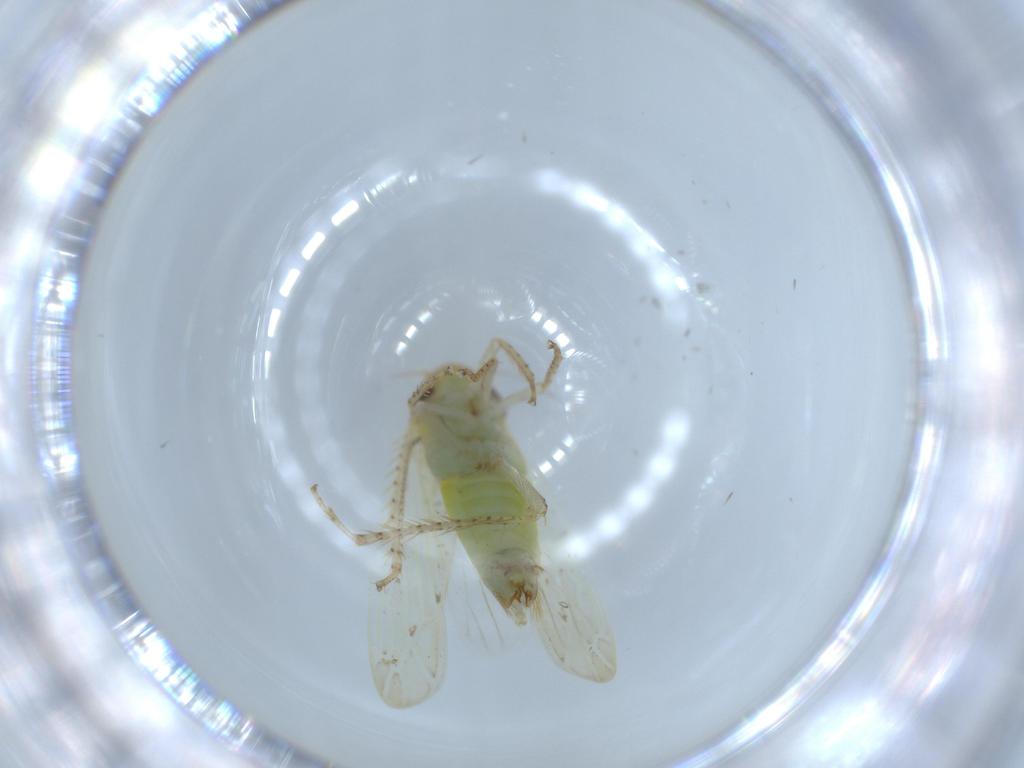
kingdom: Animalia
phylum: Arthropoda
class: Insecta
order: Hemiptera
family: Cicadellidae
